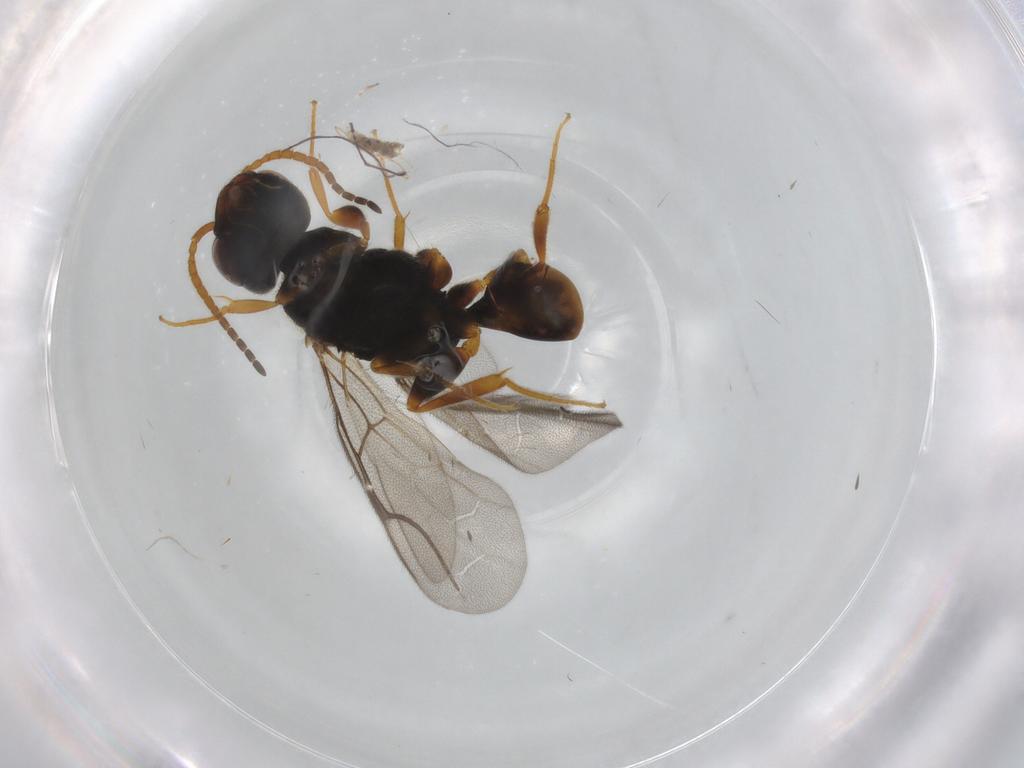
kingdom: Animalia
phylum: Arthropoda
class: Insecta
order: Hymenoptera
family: Bethylidae
